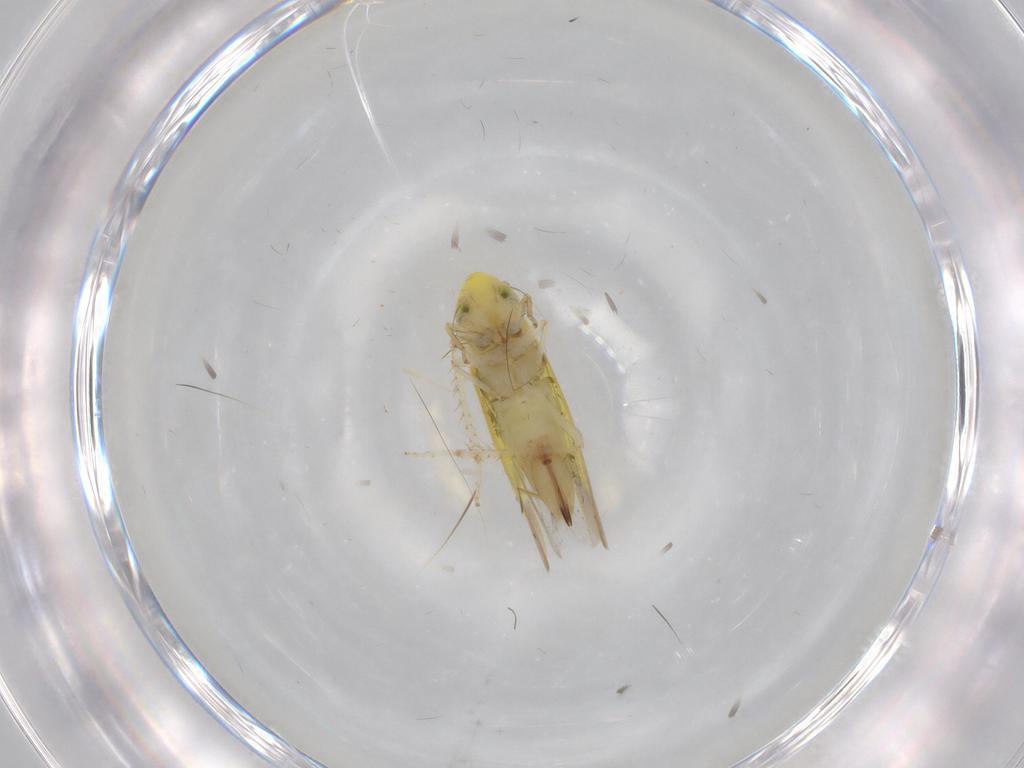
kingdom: Animalia
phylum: Arthropoda
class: Insecta
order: Hemiptera
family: Cicadellidae
